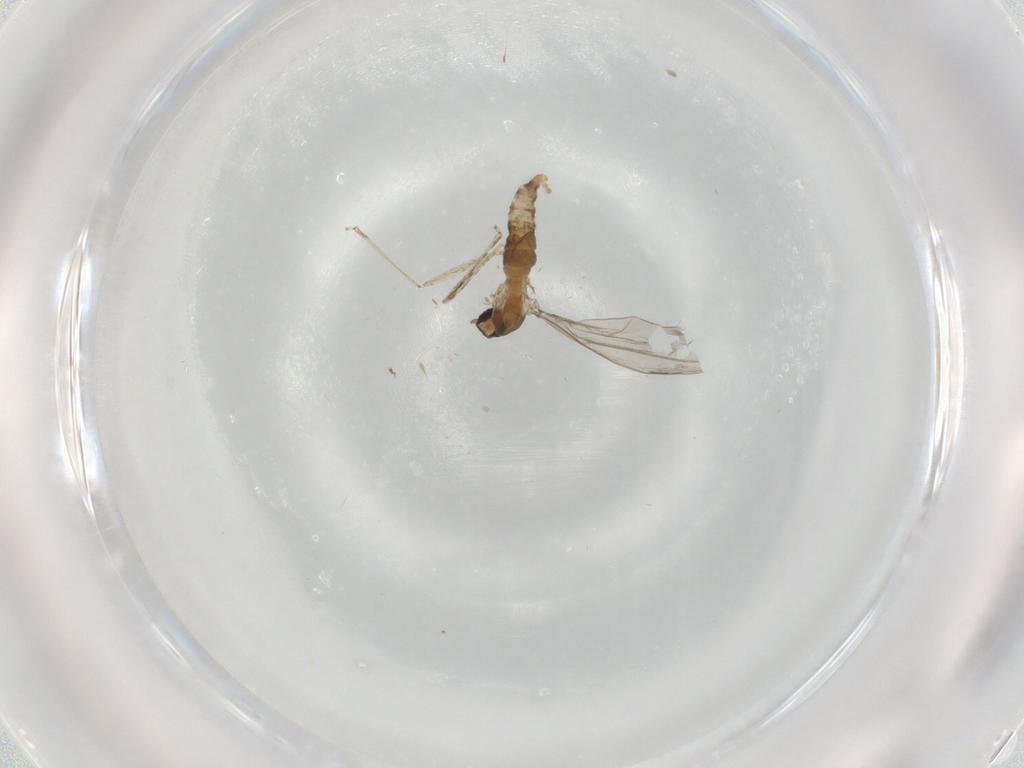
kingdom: Animalia
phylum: Arthropoda
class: Insecta
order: Diptera
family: Cecidomyiidae
